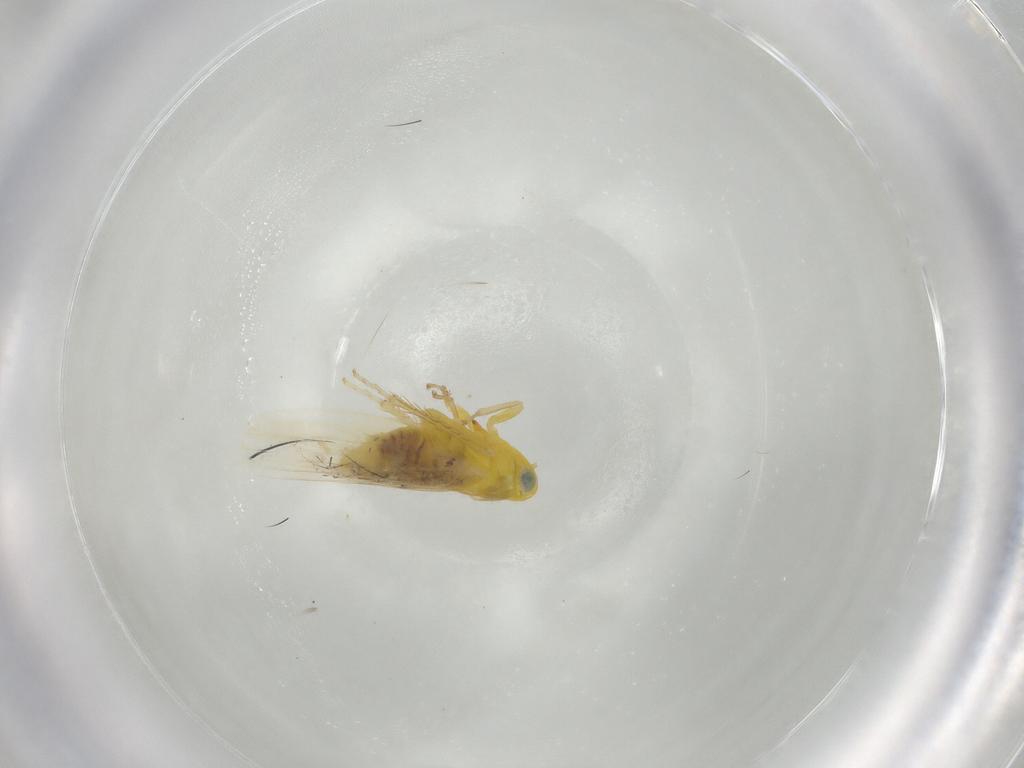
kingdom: Animalia
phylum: Arthropoda
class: Insecta
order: Hemiptera
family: Cicadellidae
